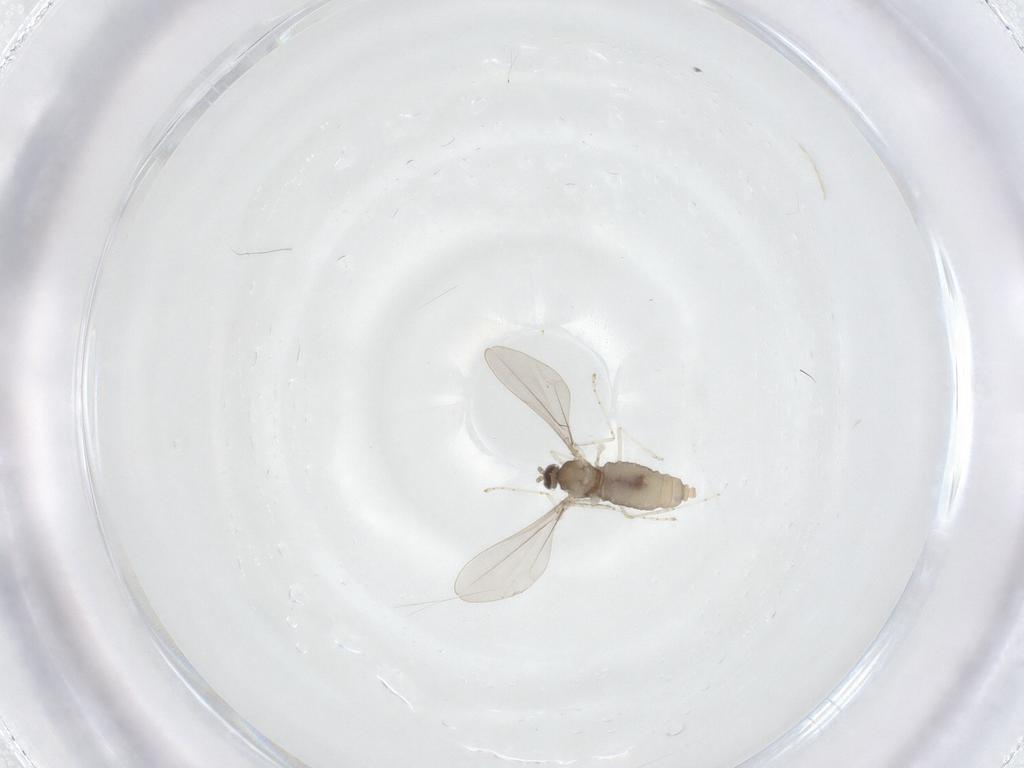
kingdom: Animalia
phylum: Arthropoda
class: Insecta
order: Diptera
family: Cecidomyiidae
